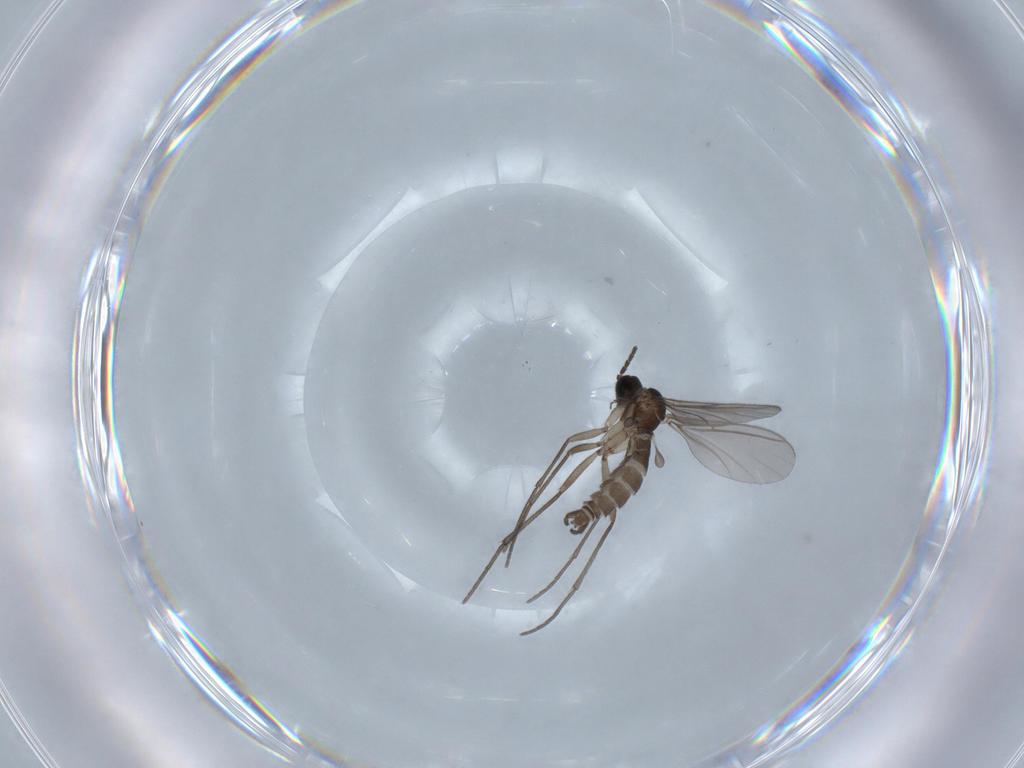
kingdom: Animalia
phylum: Arthropoda
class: Insecta
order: Diptera
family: Sciaridae
